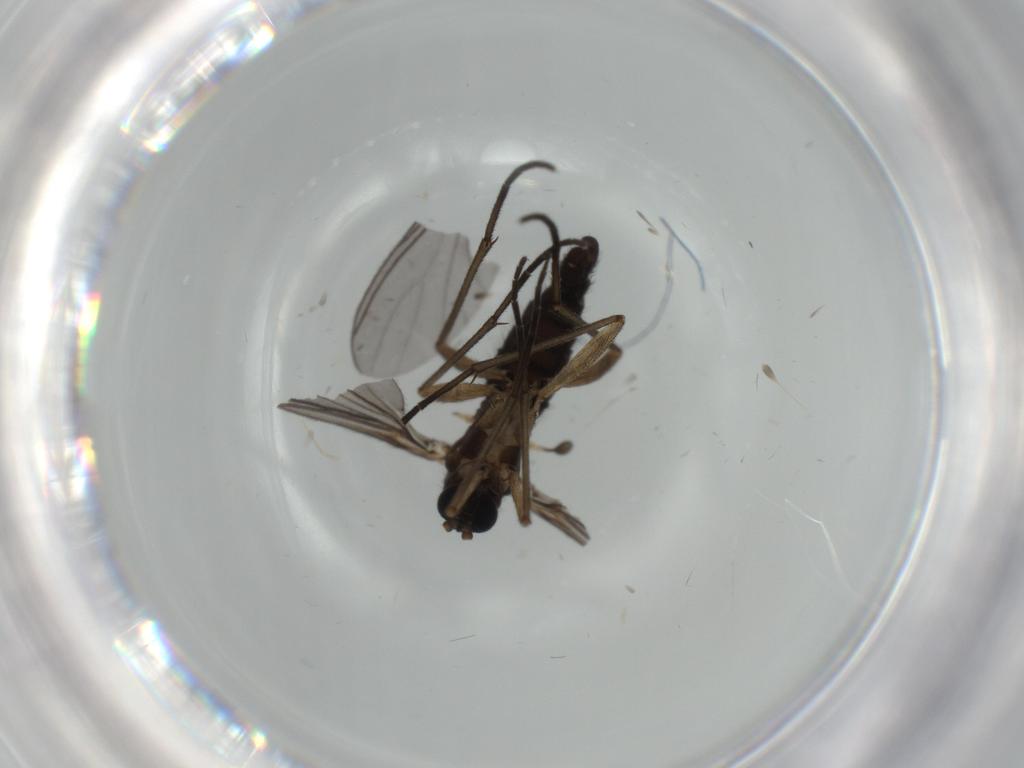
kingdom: Animalia
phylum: Arthropoda
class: Insecta
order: Diptera
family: Sciaridae
